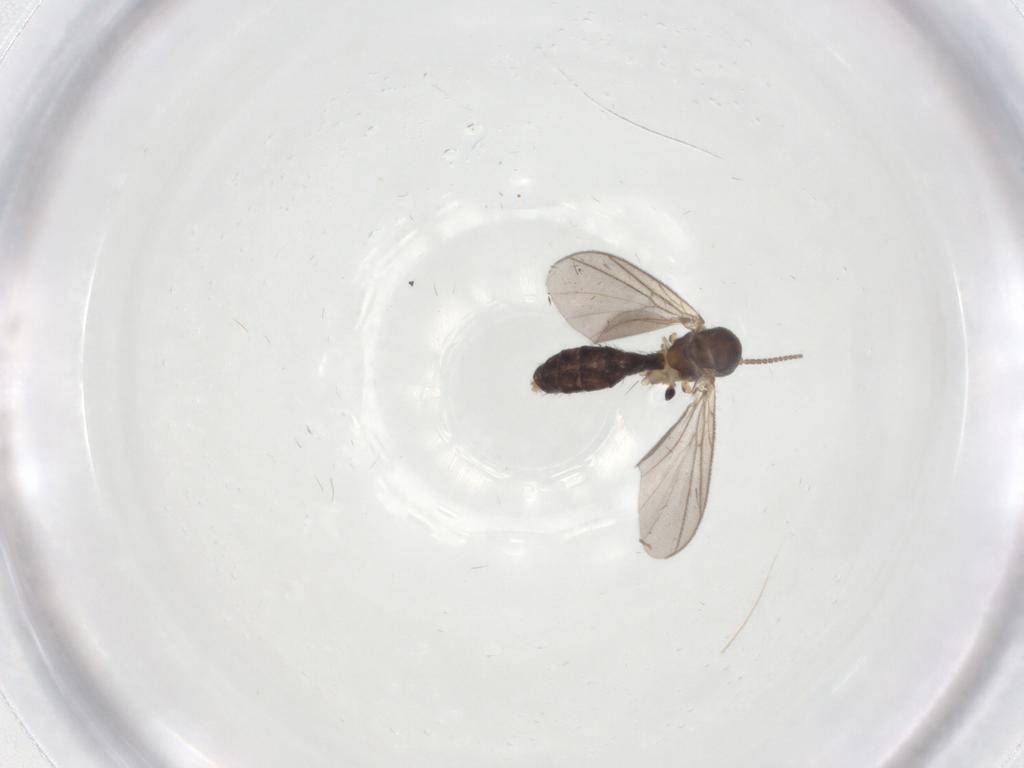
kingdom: Animalia
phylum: Arthropoda
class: Insecta
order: Diptera
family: Mycetophilidae
